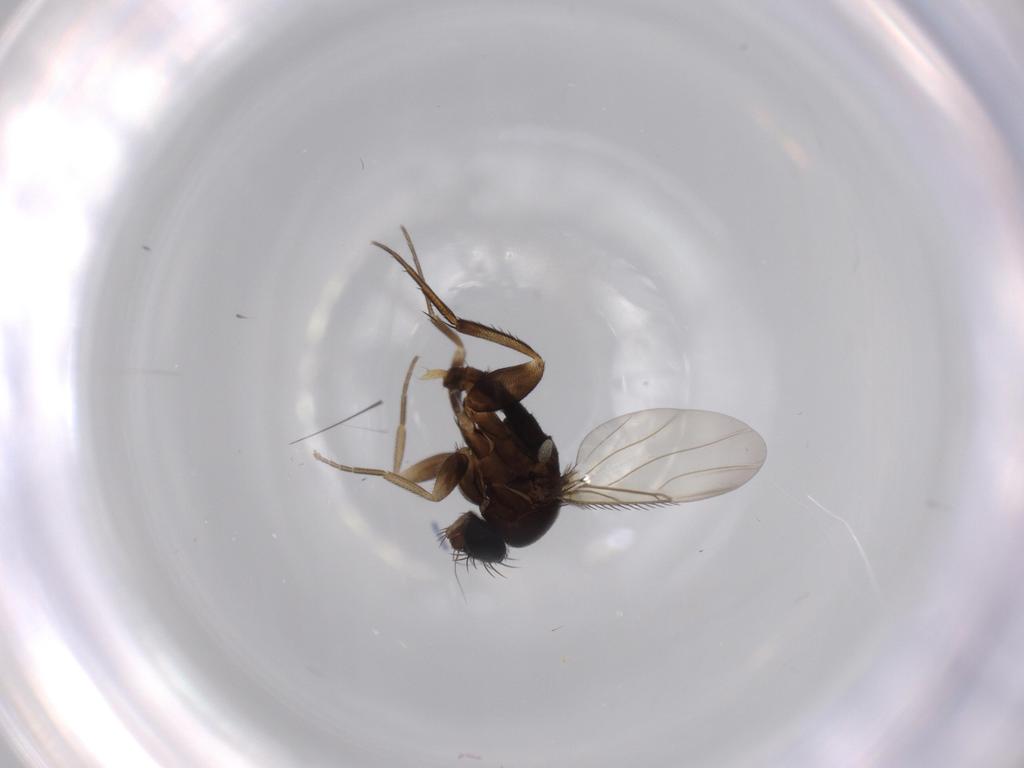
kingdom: Animalia
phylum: Arthropoda
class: Insecta
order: Diptera
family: Phoridae
